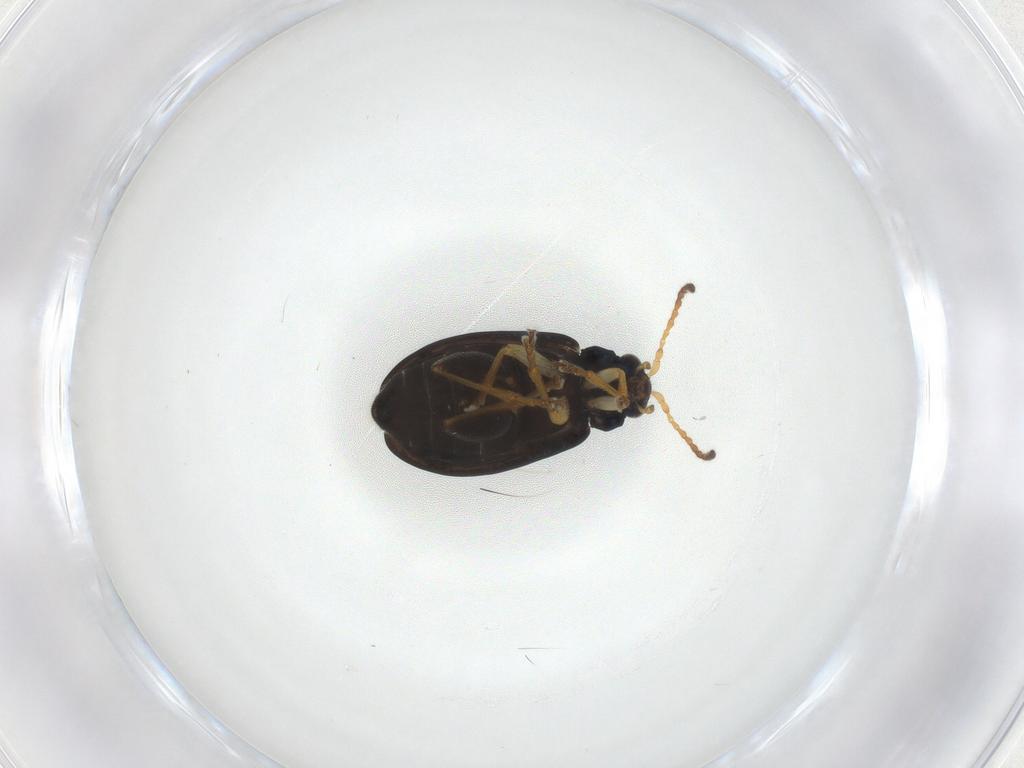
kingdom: Animalia
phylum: Arthropoda
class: Insecta
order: Coleoptera
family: Chrysomelidae
